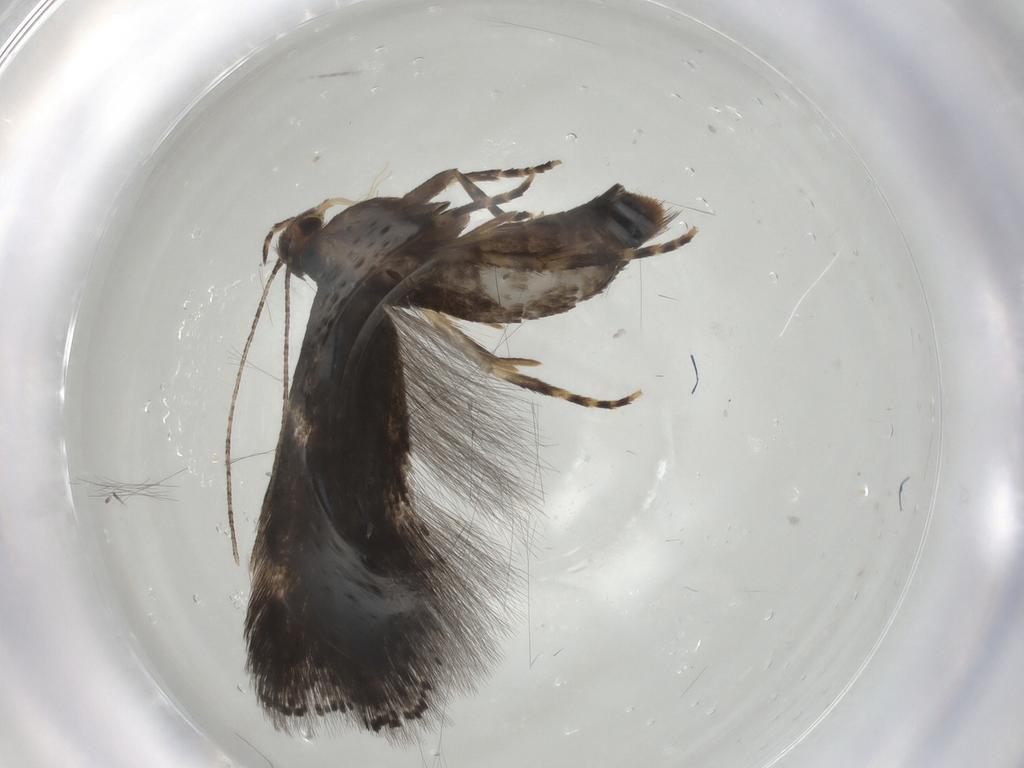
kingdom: Animalia
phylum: Arthropoda
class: Insecta
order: Lepidoptera
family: Elachistidae
